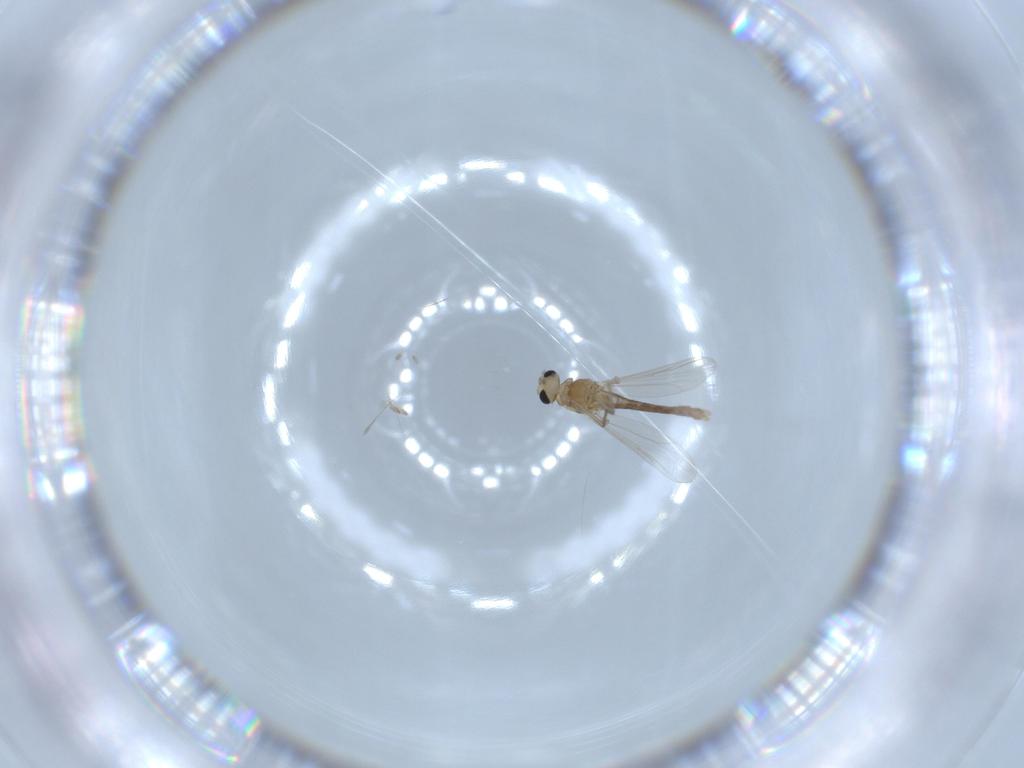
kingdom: Animalia
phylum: Arthropoda
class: Insecta
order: Diptera
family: Chironomidae
